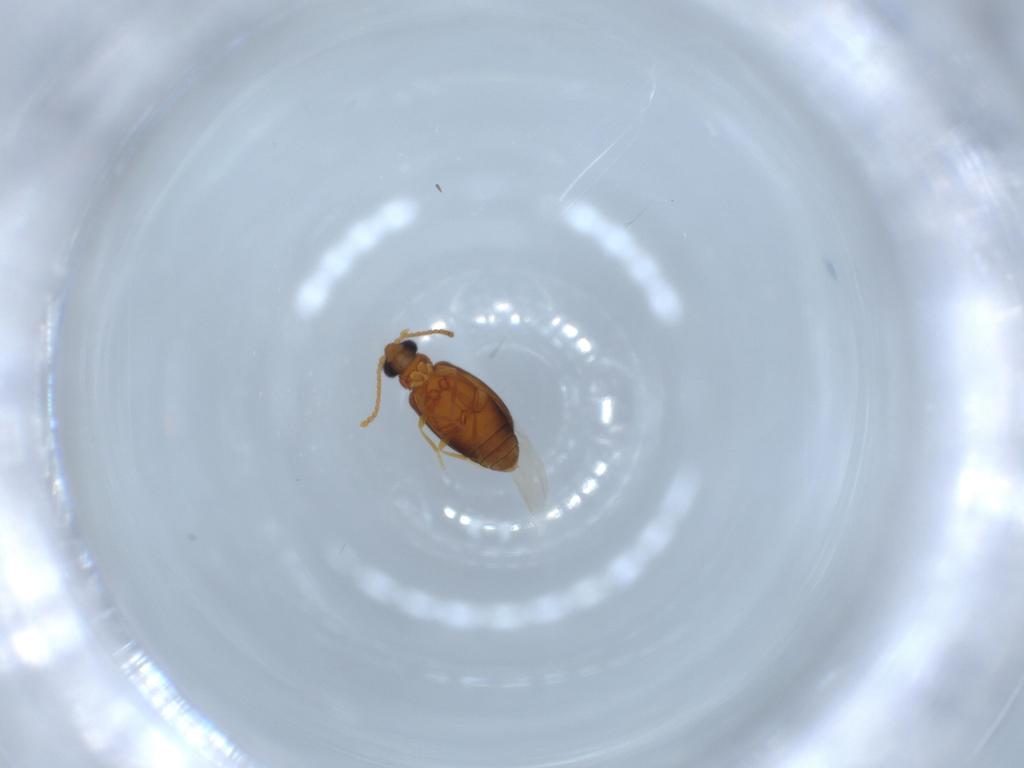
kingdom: Animalia
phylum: Arthropoda
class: Insecta
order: Coleoptera
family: Aderidae
